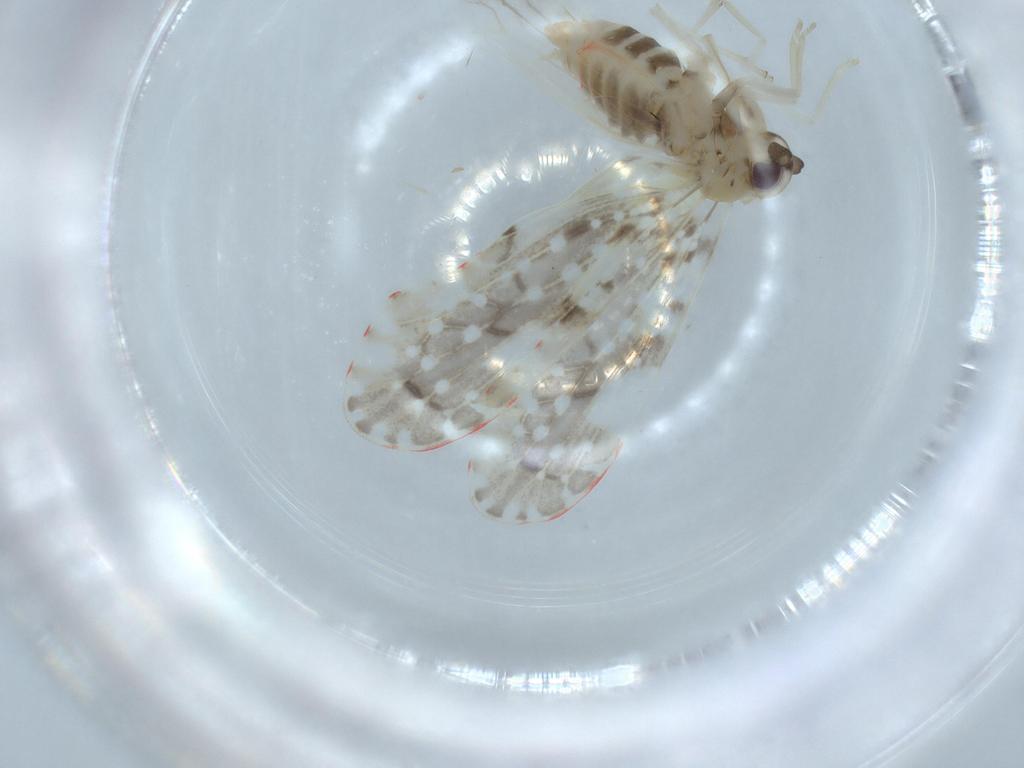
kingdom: Animalia
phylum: Arthropoda
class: Insecta
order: Hemiptera
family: Derbidae
